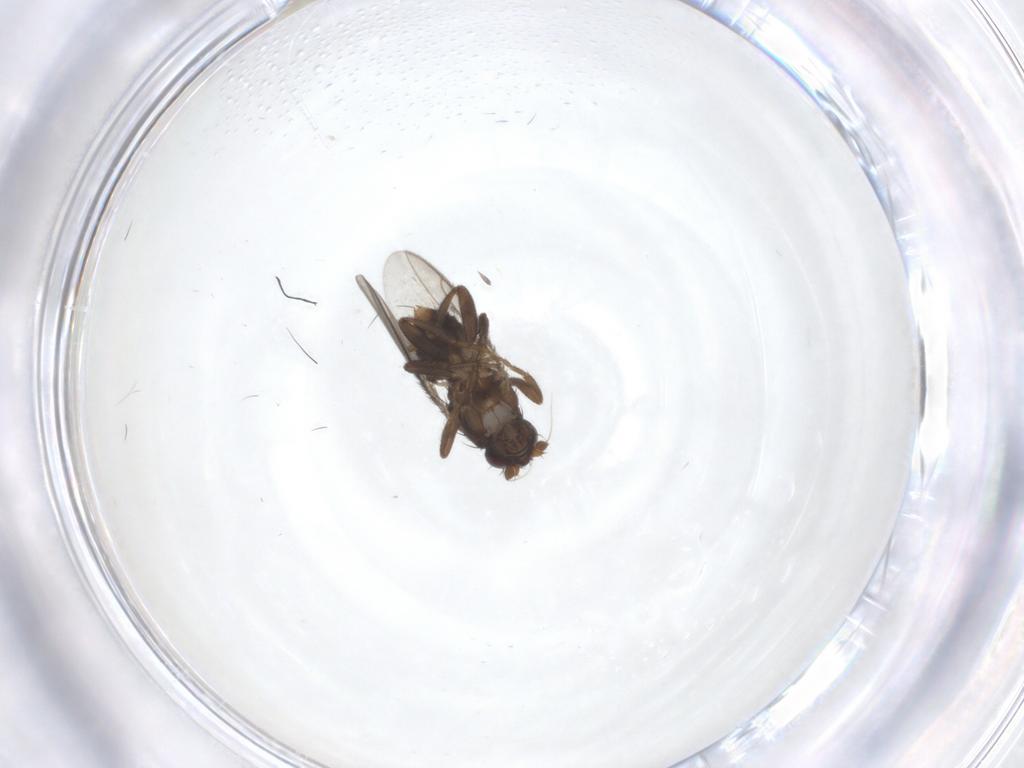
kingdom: Animalia
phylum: Arthropoda
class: Insecta
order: Diptera
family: Sphaeroceridae
